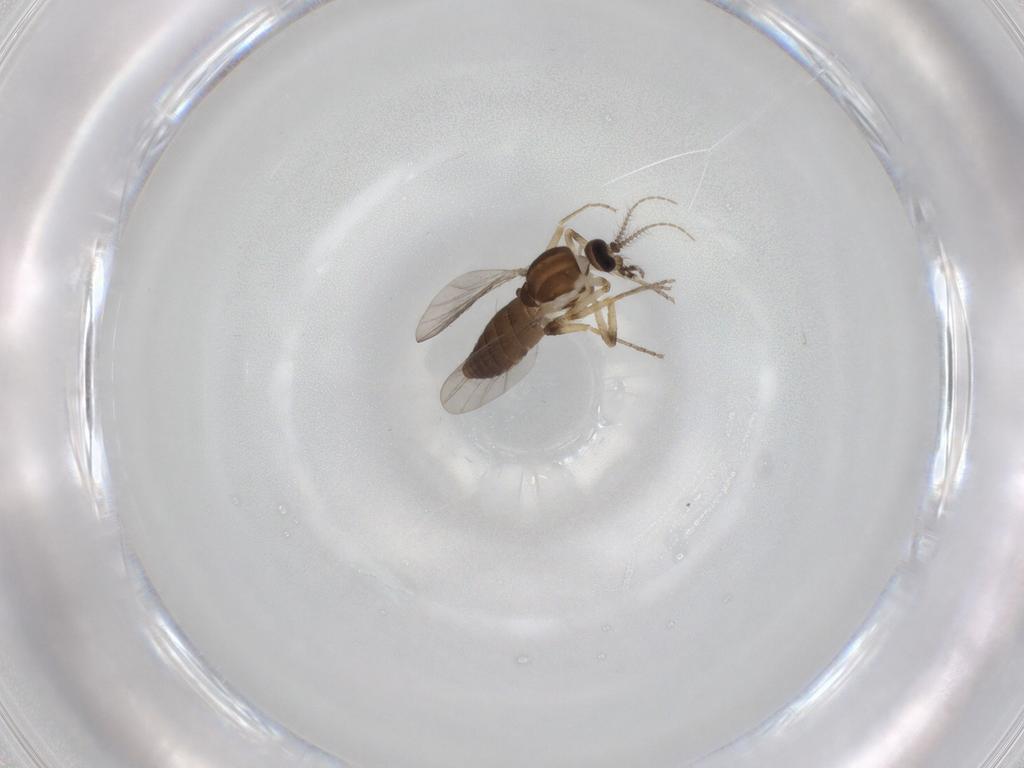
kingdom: Animalia
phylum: Arthropoda
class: Insecta
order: Diptera
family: Ceratopogonidae
